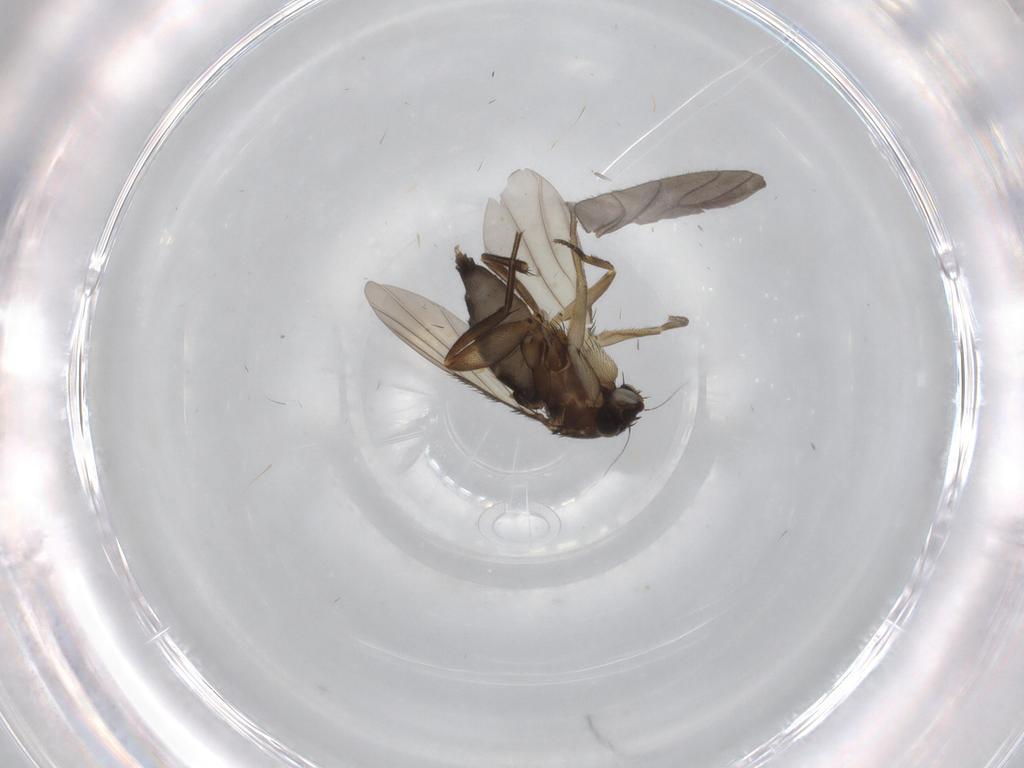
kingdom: Animalia
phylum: Arthropoda
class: Insecta
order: Diptera
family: Phoridae
